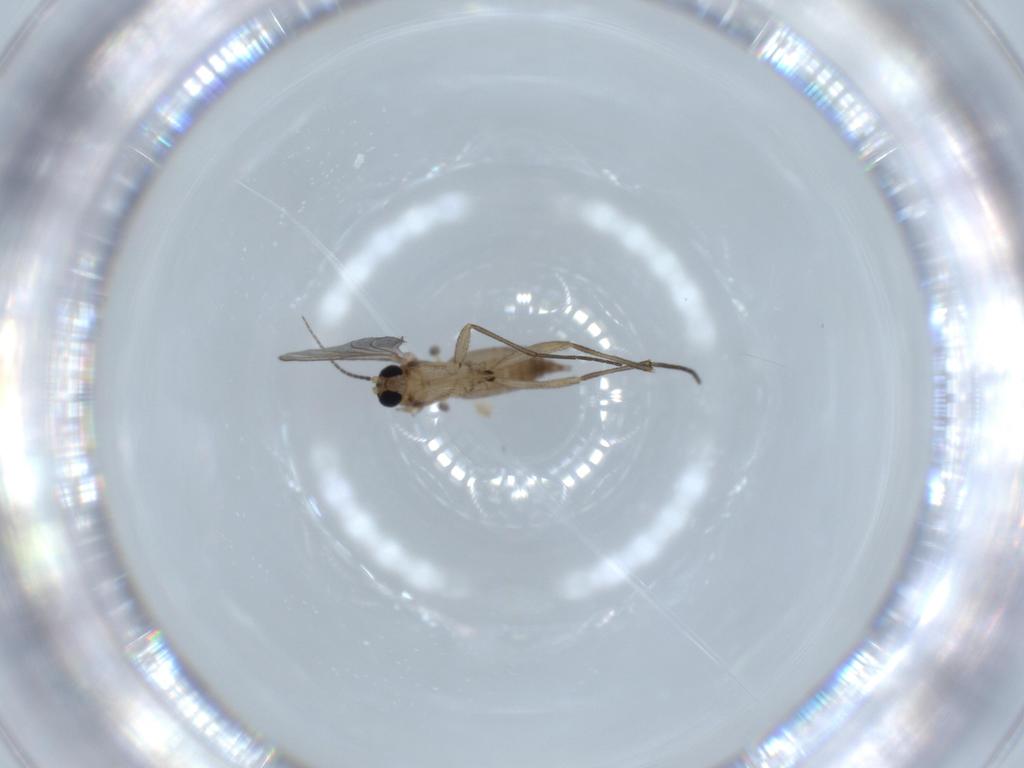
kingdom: Animalia
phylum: Arthropoda
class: Insecta
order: Diptera
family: Sciaridae
